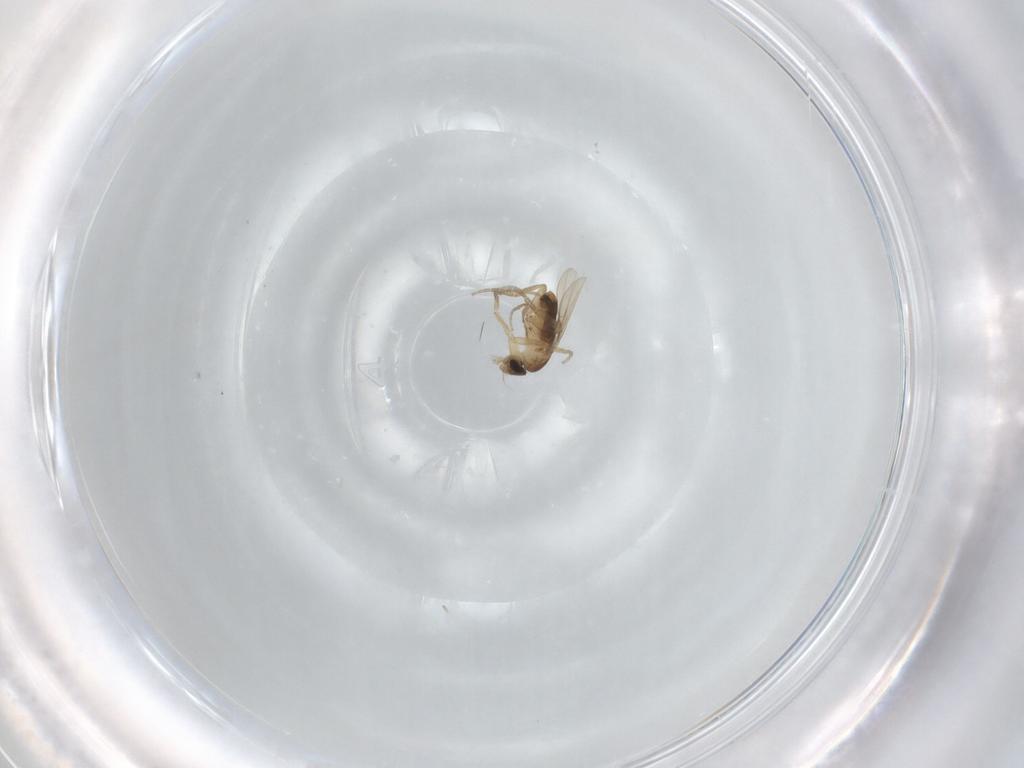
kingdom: Animalia
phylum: Arthropoda
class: Insecta
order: Diptera
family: Phoridae
